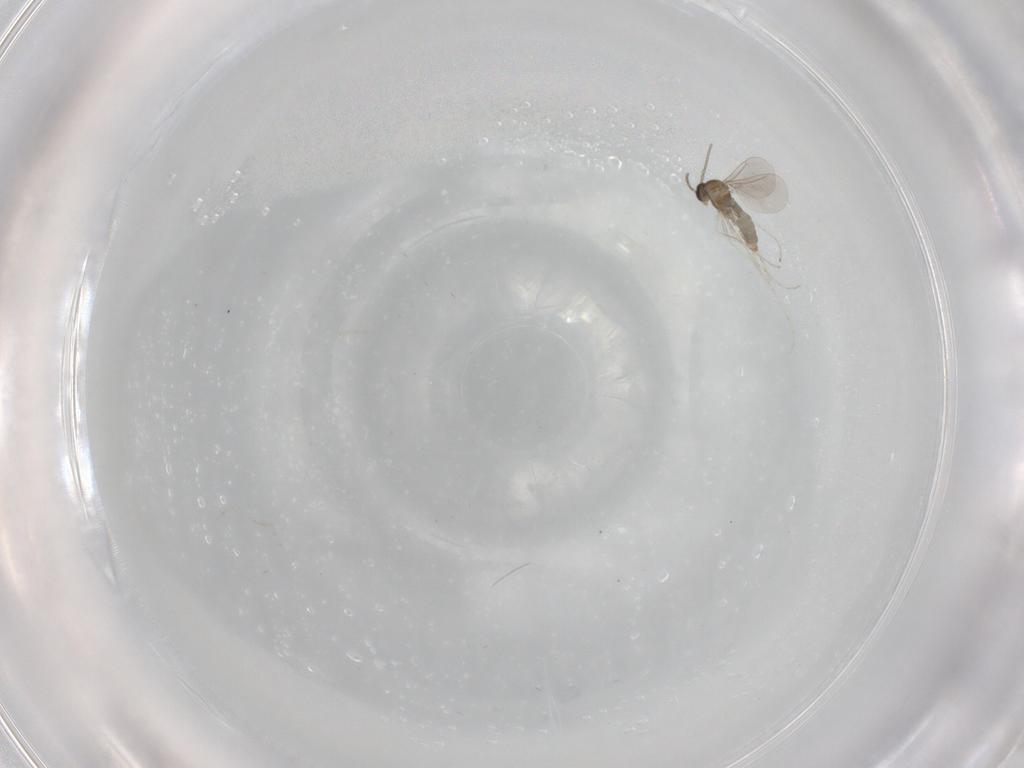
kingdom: Animalia
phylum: Arthropoda
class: Insecta
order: Diptera
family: Cecidomyiidae
